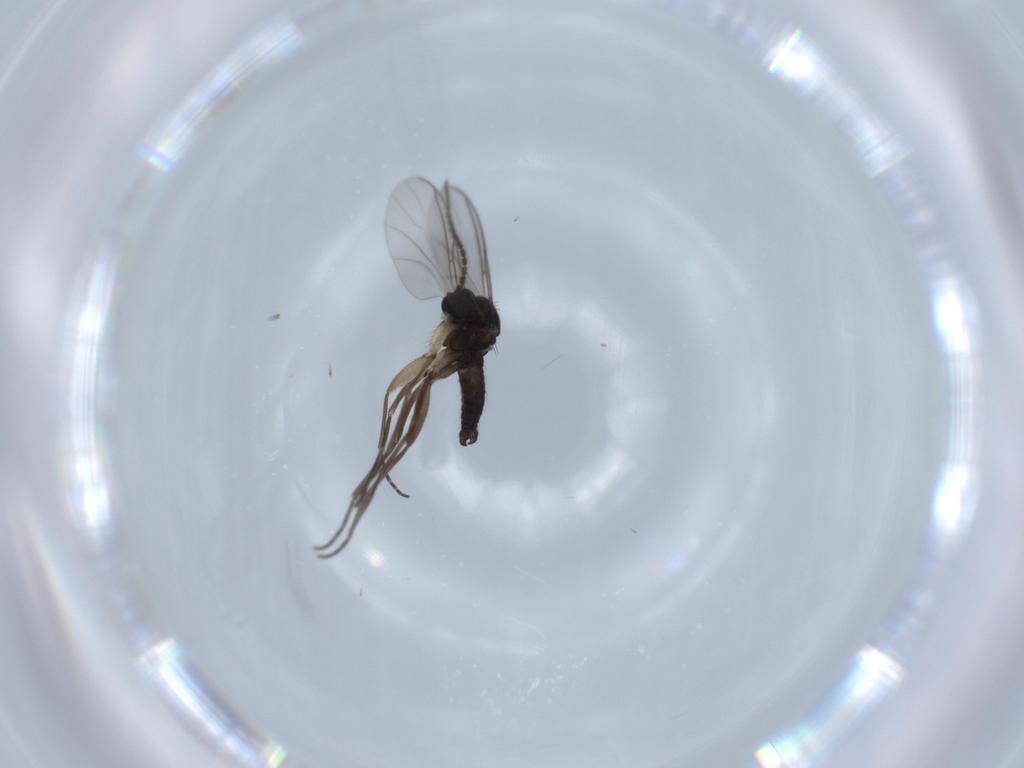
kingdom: Animalia
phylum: Arthropoda
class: Insecta
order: Diptera
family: Sciaridae
